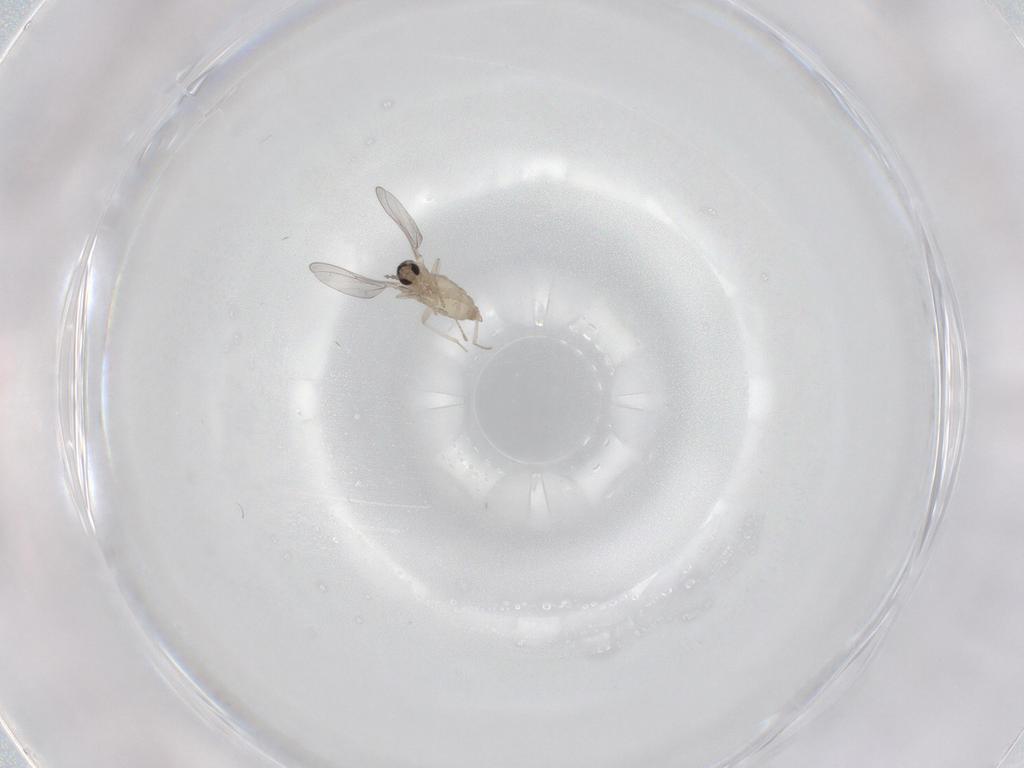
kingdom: Animalia
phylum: Arthropoda
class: Insecta
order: Diptera
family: Cecidomyiidae
